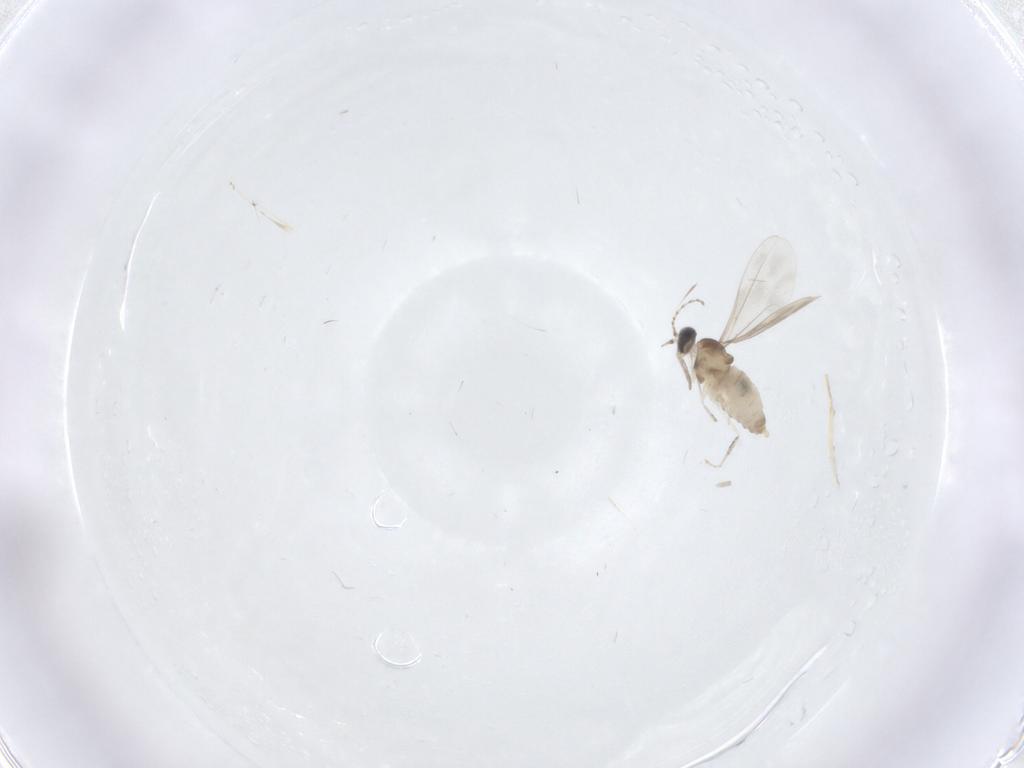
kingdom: Animalia
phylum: Arthropoda
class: Insecta
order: Diptera
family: Chironomidae
